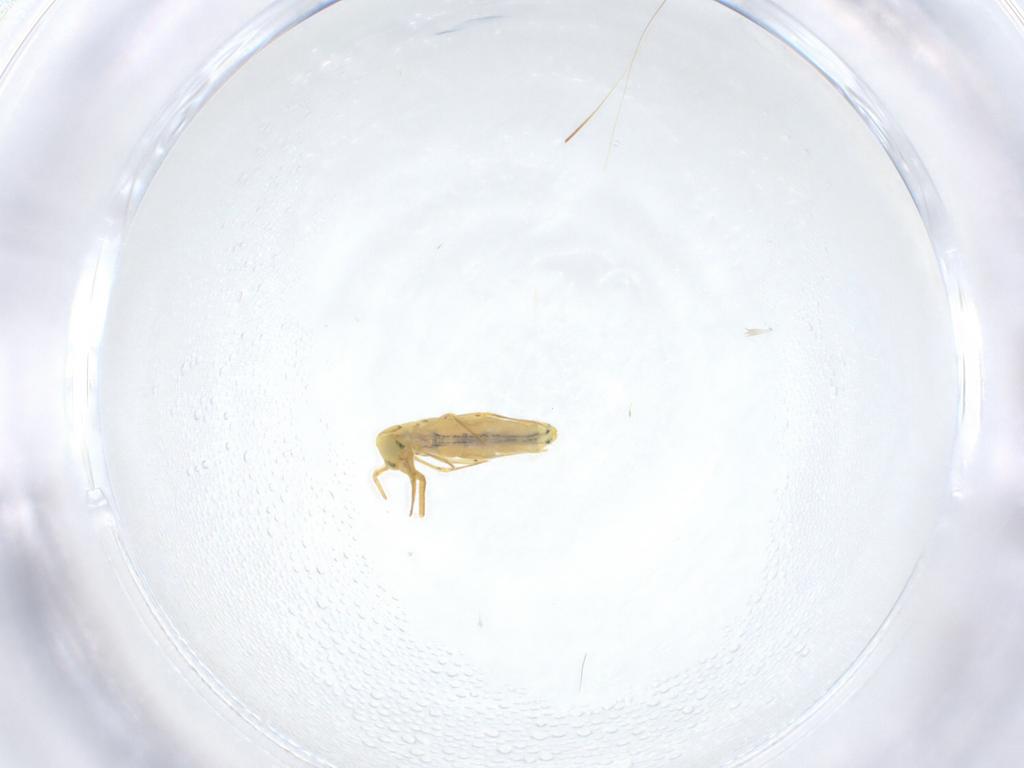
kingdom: Animalia
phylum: Arthropoda
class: Collembola
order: Entomobryomorpha
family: Entomobryidae
